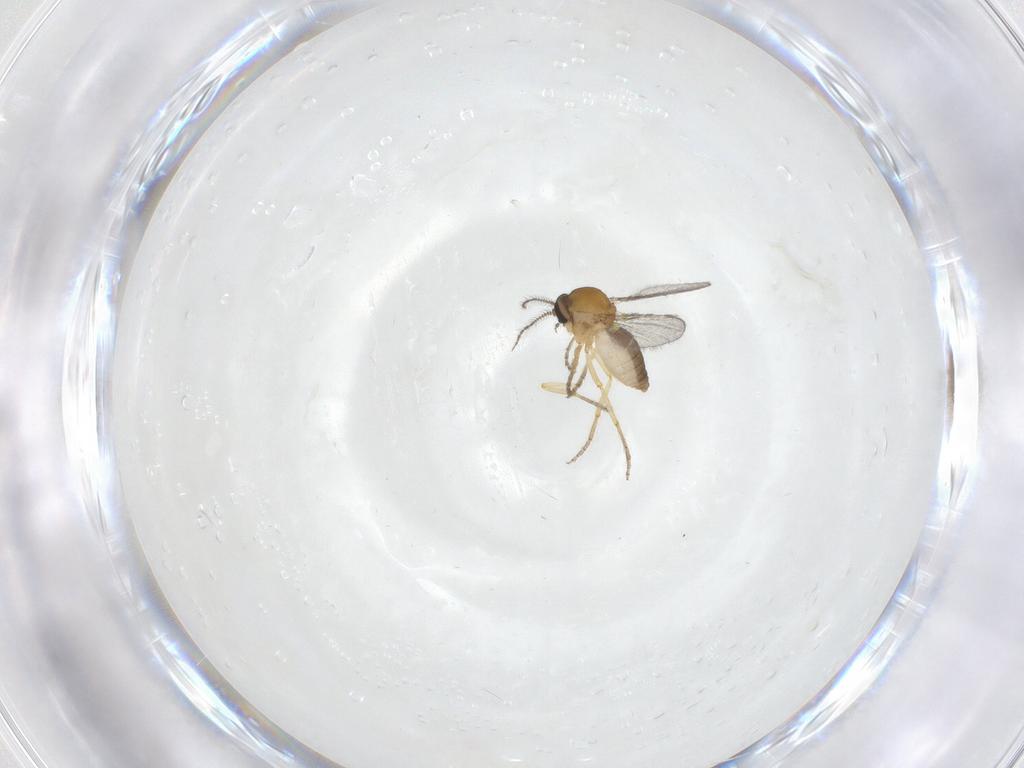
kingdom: Animalia
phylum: Arthropoda
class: Insecta
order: Diptera
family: Ceratopogonidae
